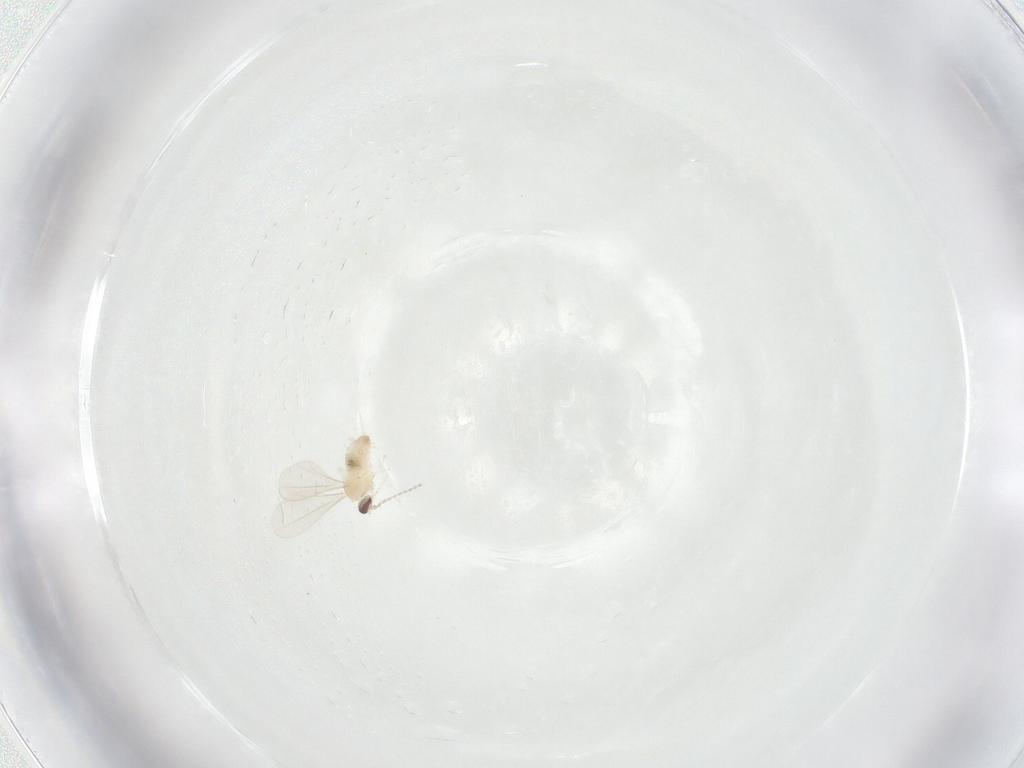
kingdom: Animalia
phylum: Arthropoda
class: Insecta
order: Diptera
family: Cecidomyiidae
